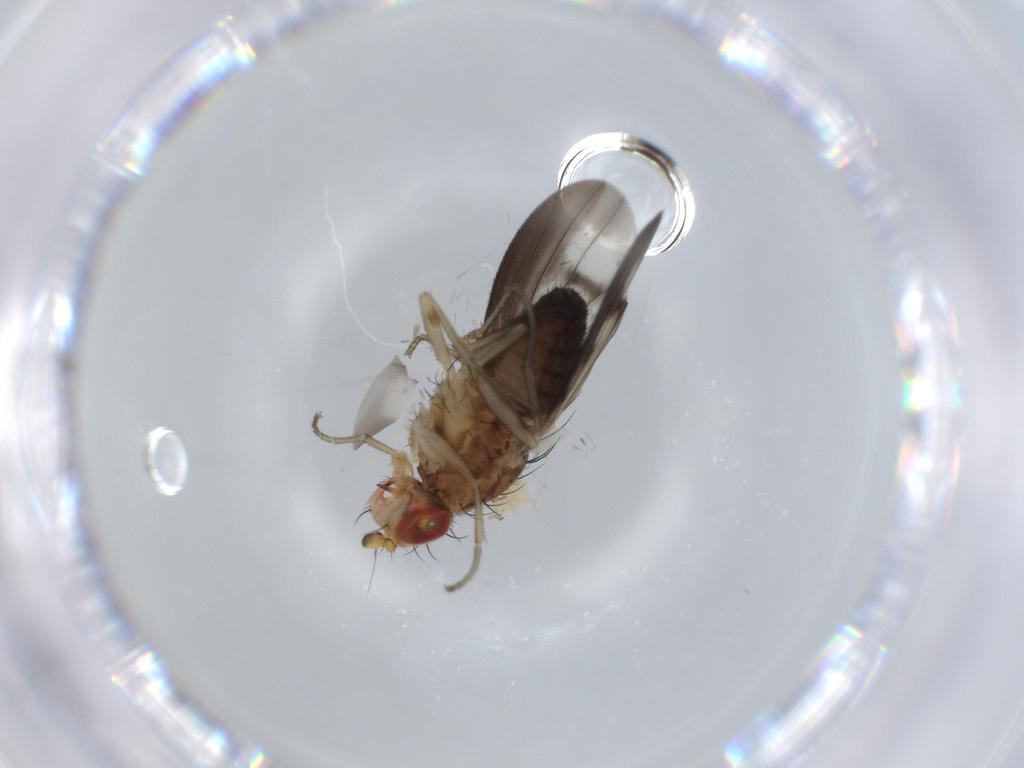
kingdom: Animalia
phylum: Arthropoda
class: Insecta
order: Diptera
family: Heleomyzidae
